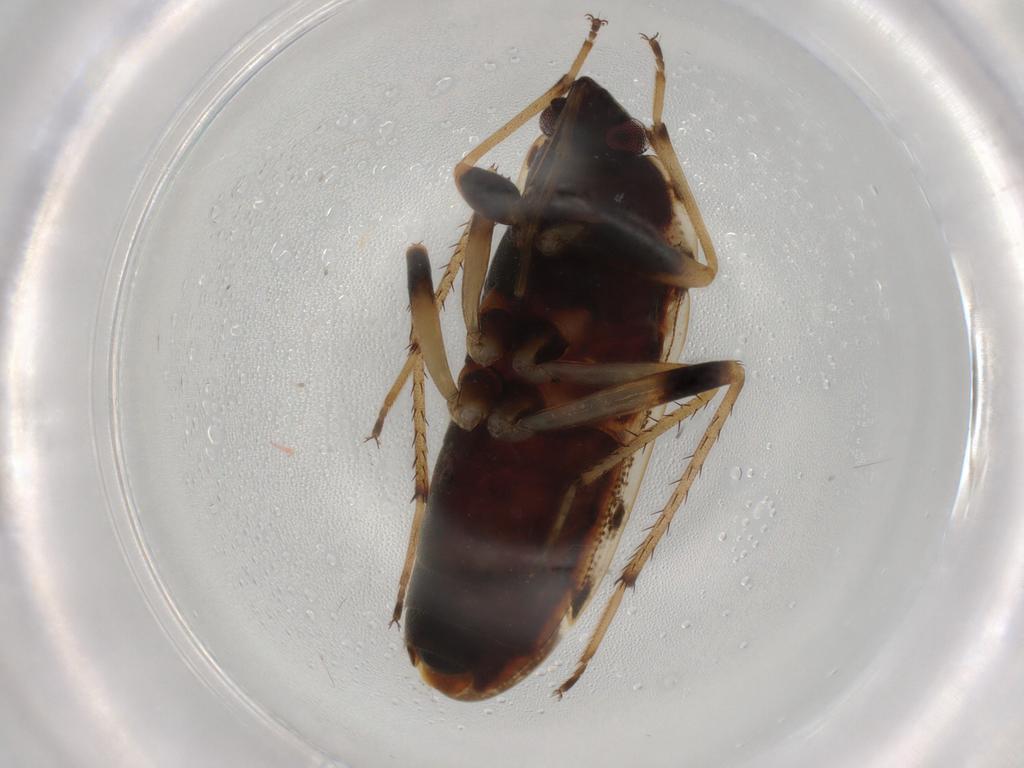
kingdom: Animalia
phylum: Arthropoda
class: Insecta
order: Hemiptera
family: Rhyparochromidae
